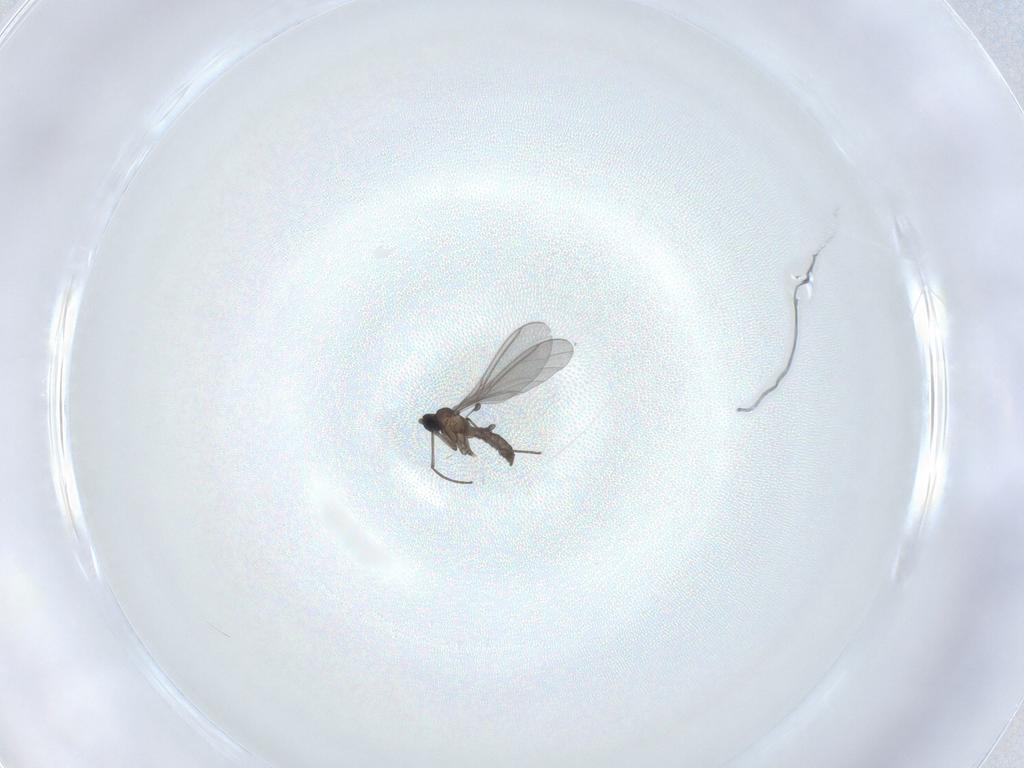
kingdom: Animalia
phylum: Arthropoda
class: Insecta
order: Diptera
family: Sciaridae
